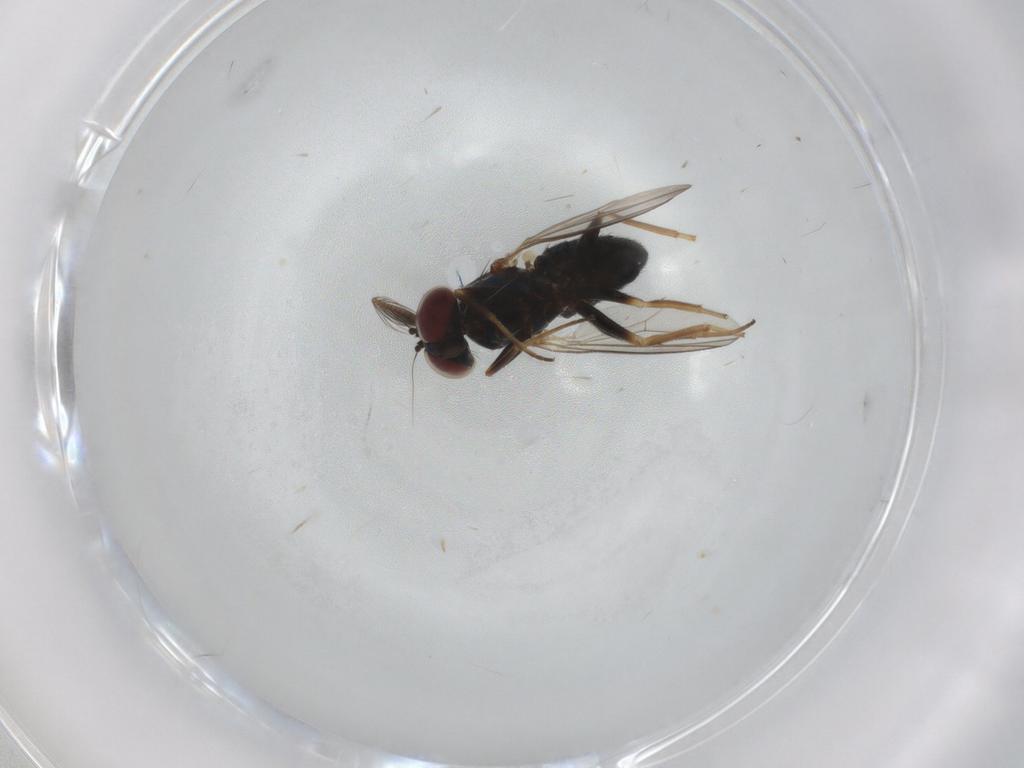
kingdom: Animalia
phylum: Arthropoda
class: Insecta
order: Diptera
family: Dolichopodidae
